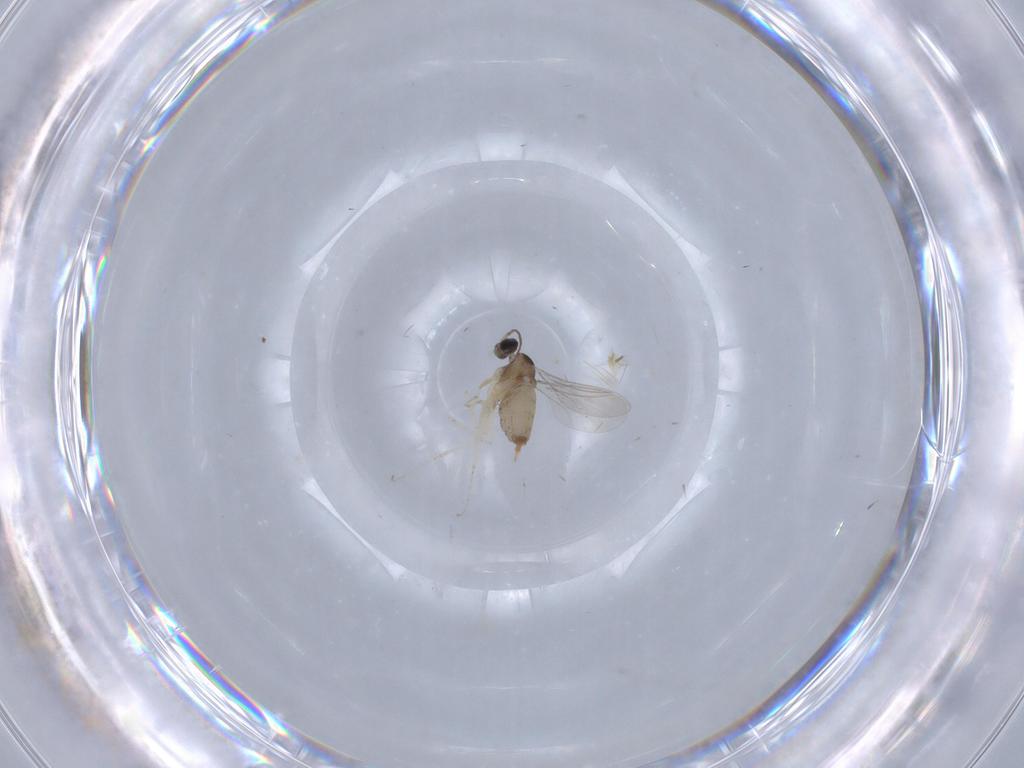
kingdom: Animalia
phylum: Arthropoda
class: Insecta
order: Diptera
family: Cecidomyiidae
